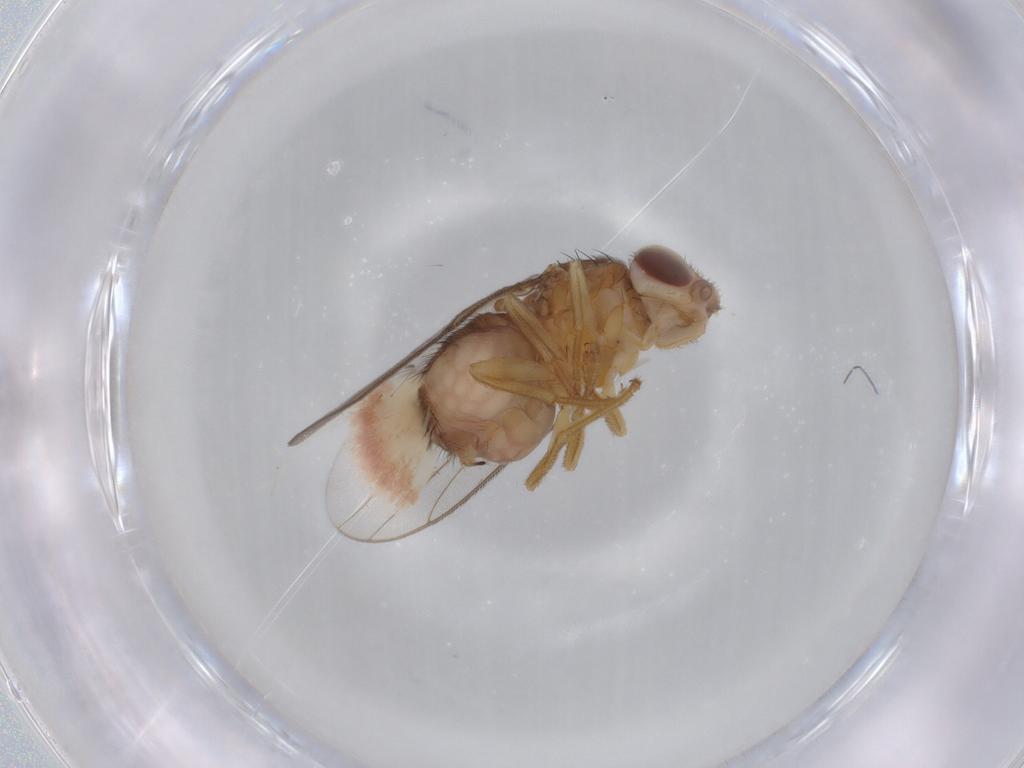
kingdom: Animalia
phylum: Arthropoda
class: Insecta
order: Diptera
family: Chloropidae
